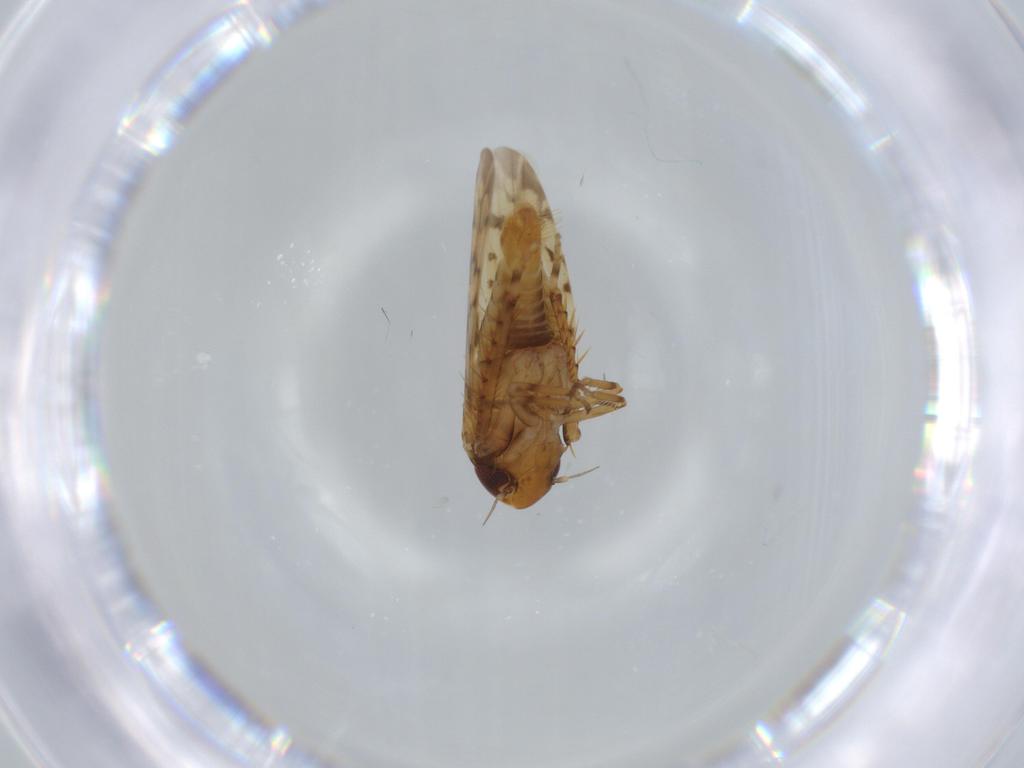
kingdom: Animalia
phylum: Arthropoda
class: Insecta
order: Hemiptera
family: Cicadellidae
